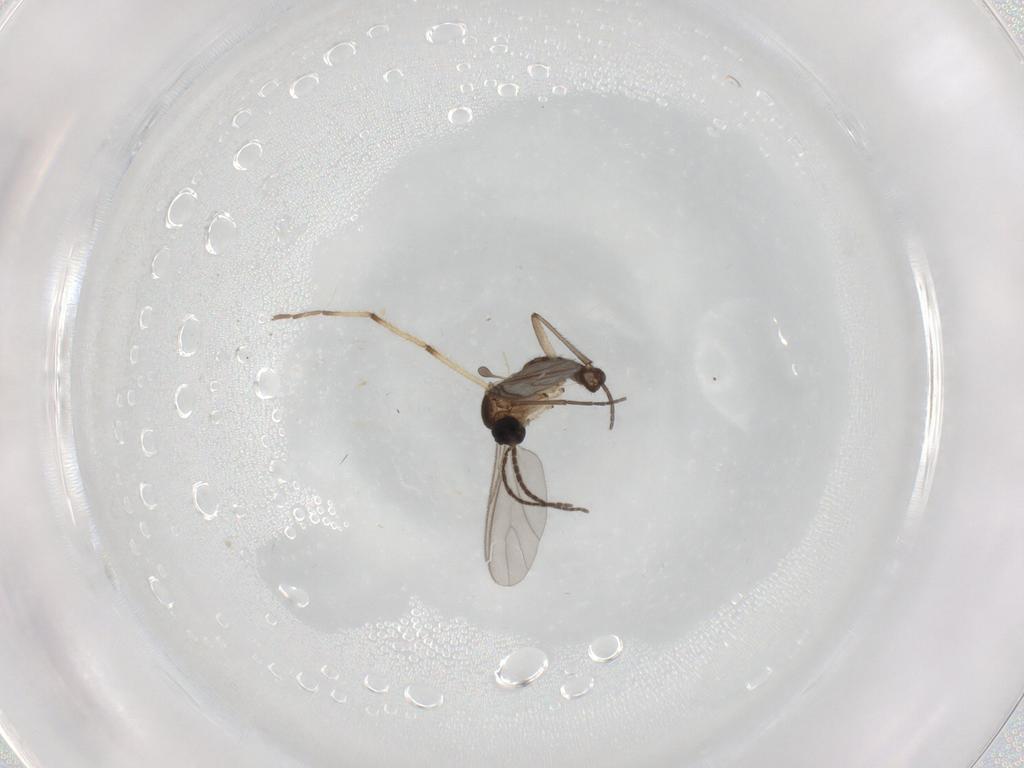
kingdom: Animalia
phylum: Arthropoda
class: Insecta
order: Diptera
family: Sciaridae
